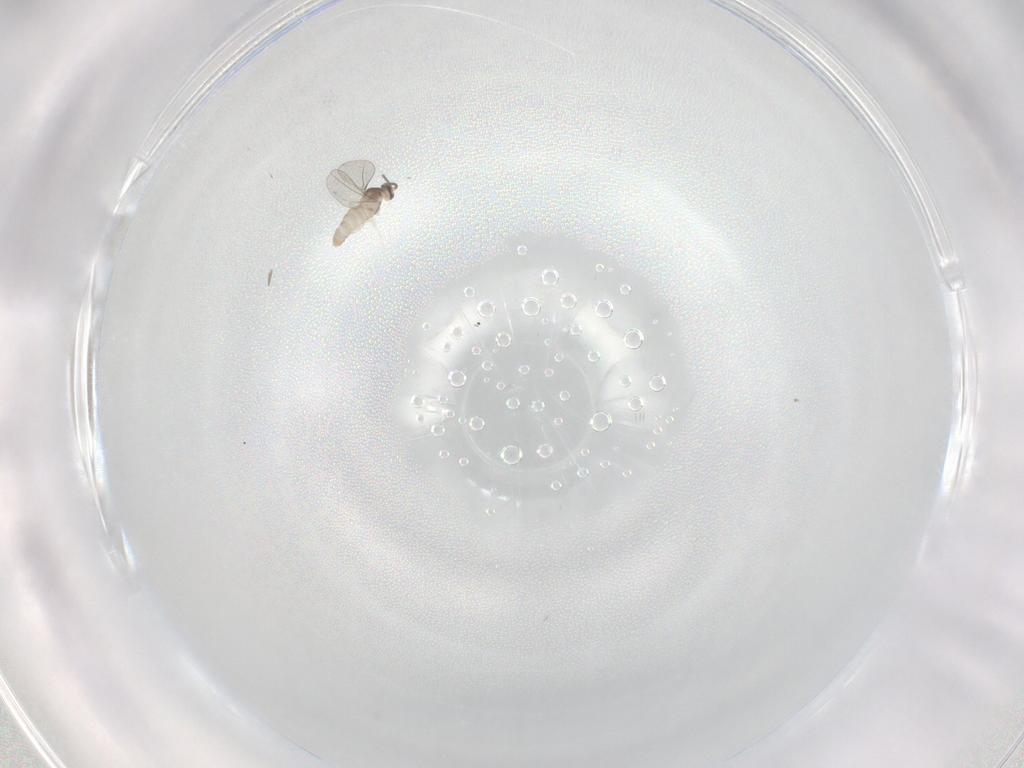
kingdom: Animalia
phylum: Arthropoda
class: Insecta
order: Diptera
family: Cecidomyiidae
